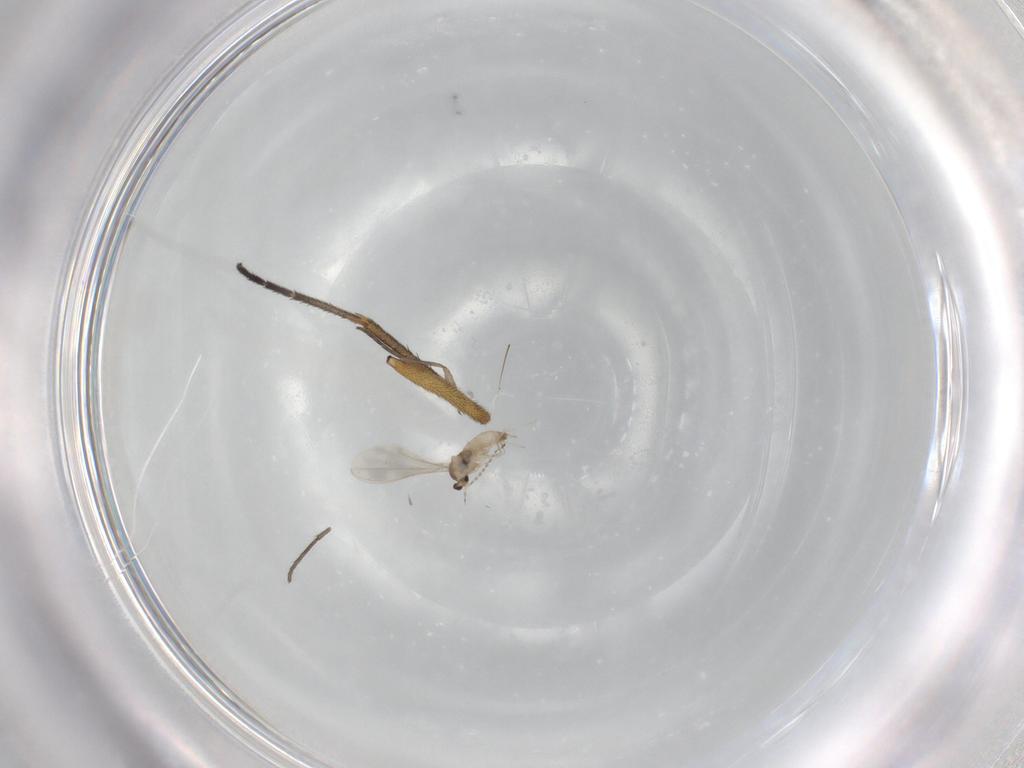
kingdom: Animalia
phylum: Arthropoda
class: Insecta
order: Diptera
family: Cecidomyiidae
